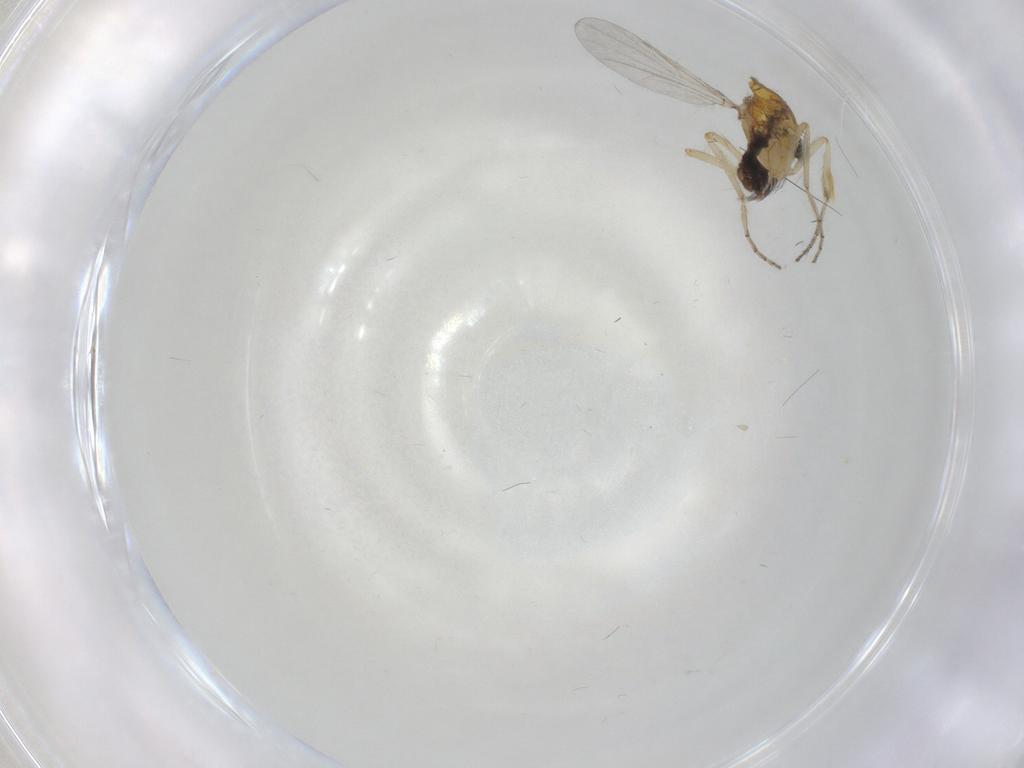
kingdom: Animalia
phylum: Arthropoda
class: Insecta
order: Diptera
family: Ceratopogonidae
